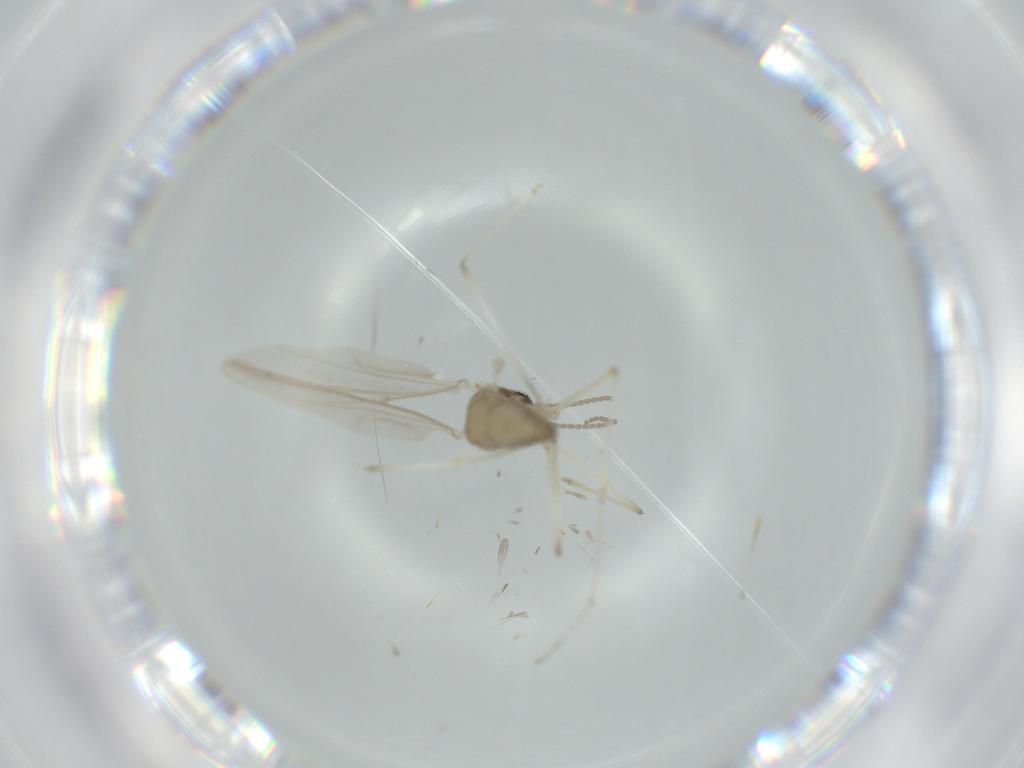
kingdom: Animalia
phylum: Arthropoda
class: Insecta
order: Diptera
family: Cecidomyiidae
